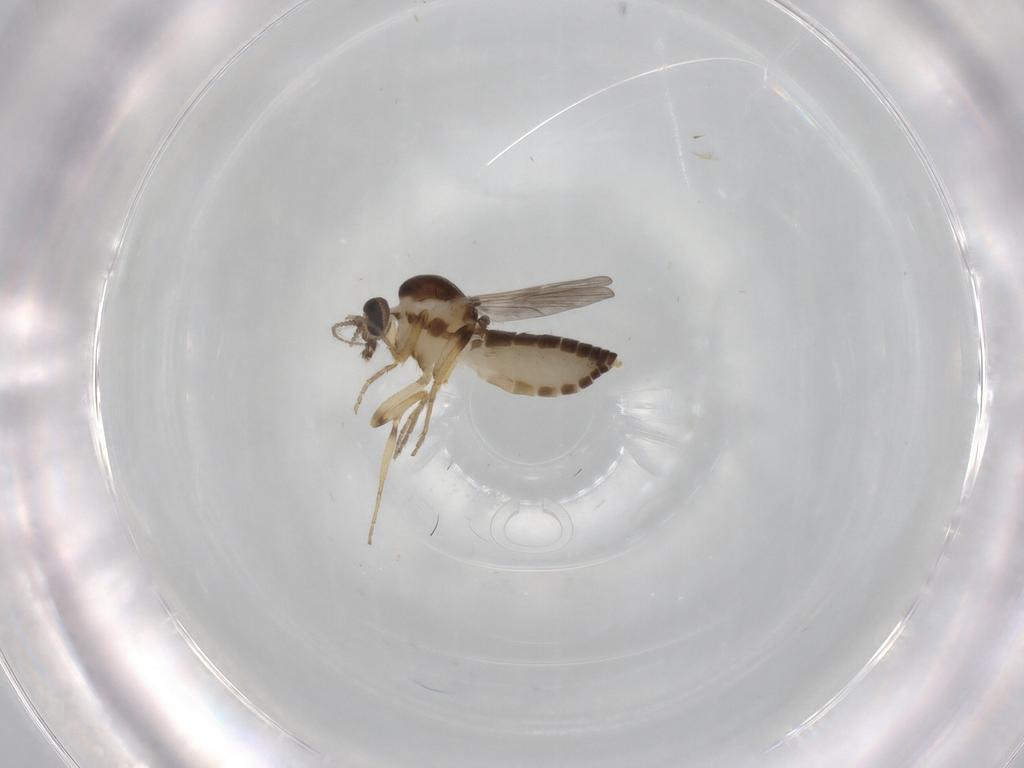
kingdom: Animalia
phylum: Arthropoda
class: Insecta
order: Diptera
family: Ceratopogonidae
